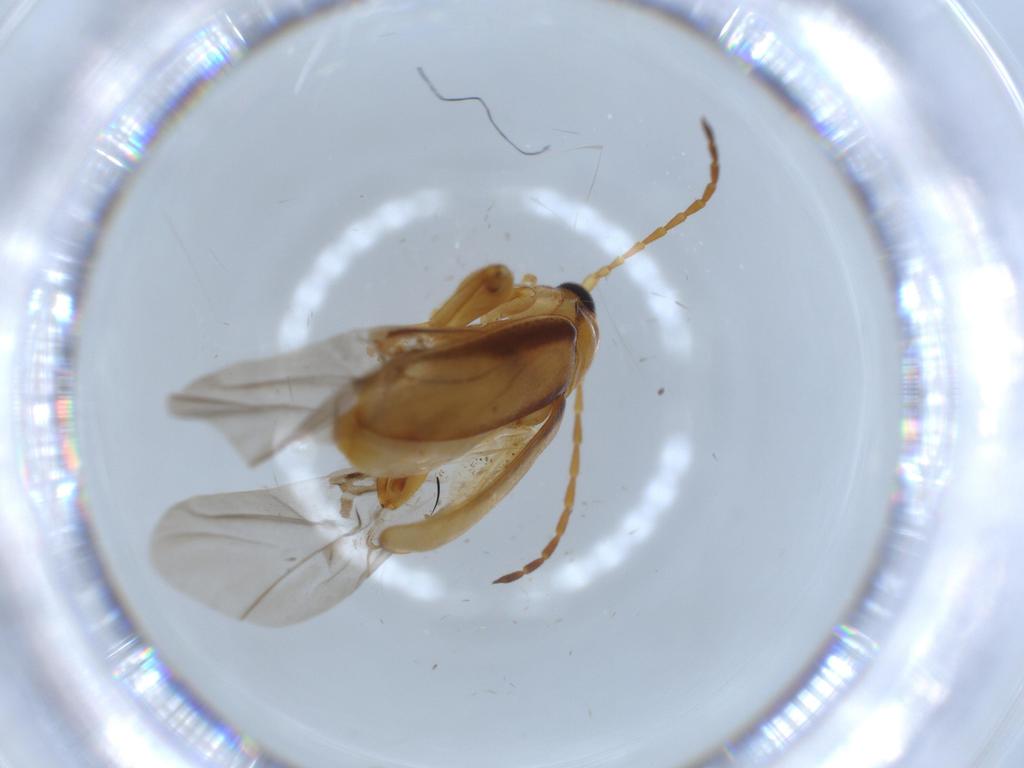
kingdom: Animalia
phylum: Arthropoda
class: Insecta
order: Coleoptera
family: Chrysomelidae
